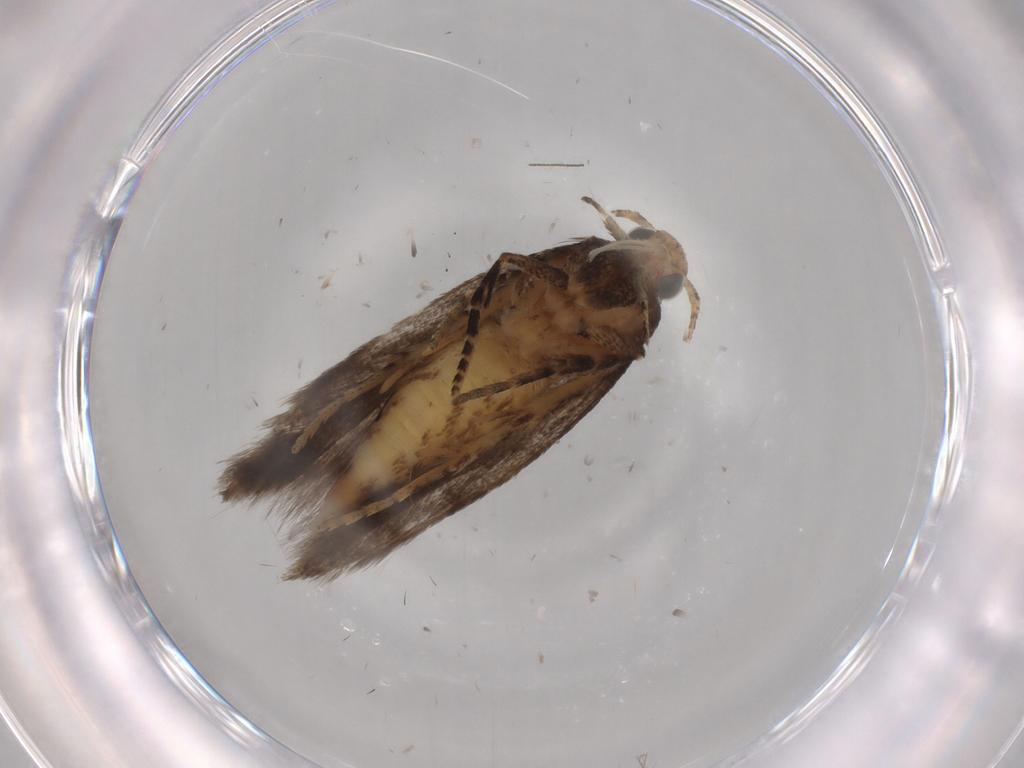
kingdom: Animalia
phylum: Arthropoda
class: Insecta
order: Lepidoptera
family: Gelechiidae
